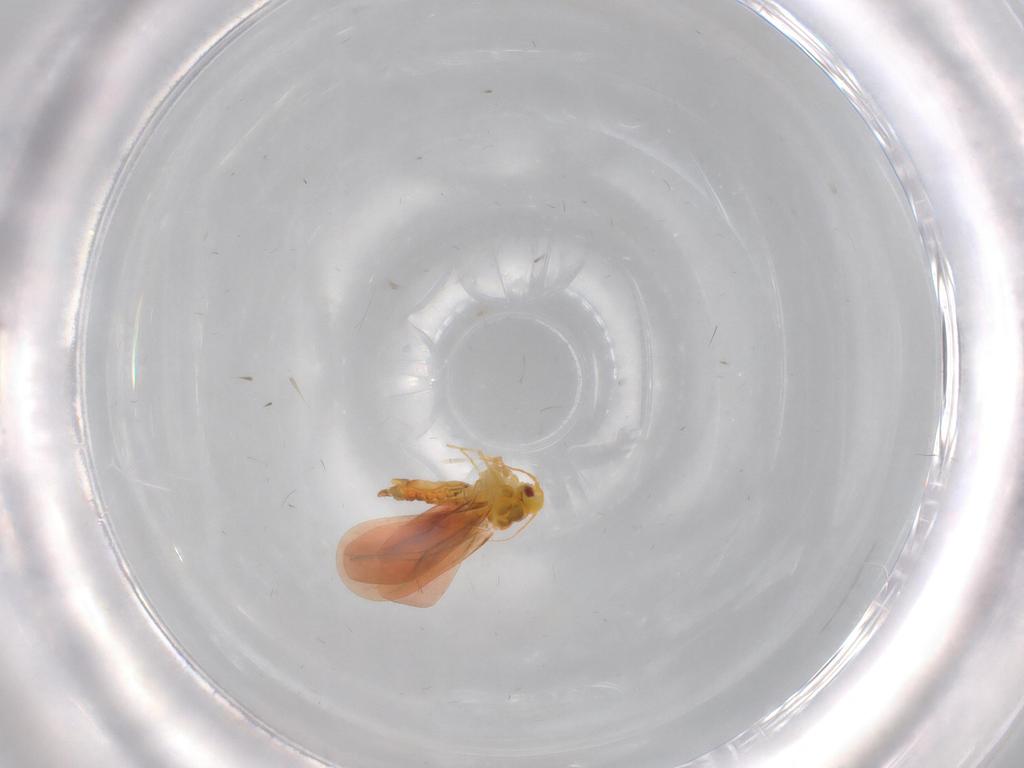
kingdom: Animalia
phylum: Arthropoda
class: Insecta
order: Hemiptera
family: Aleyrodidae
